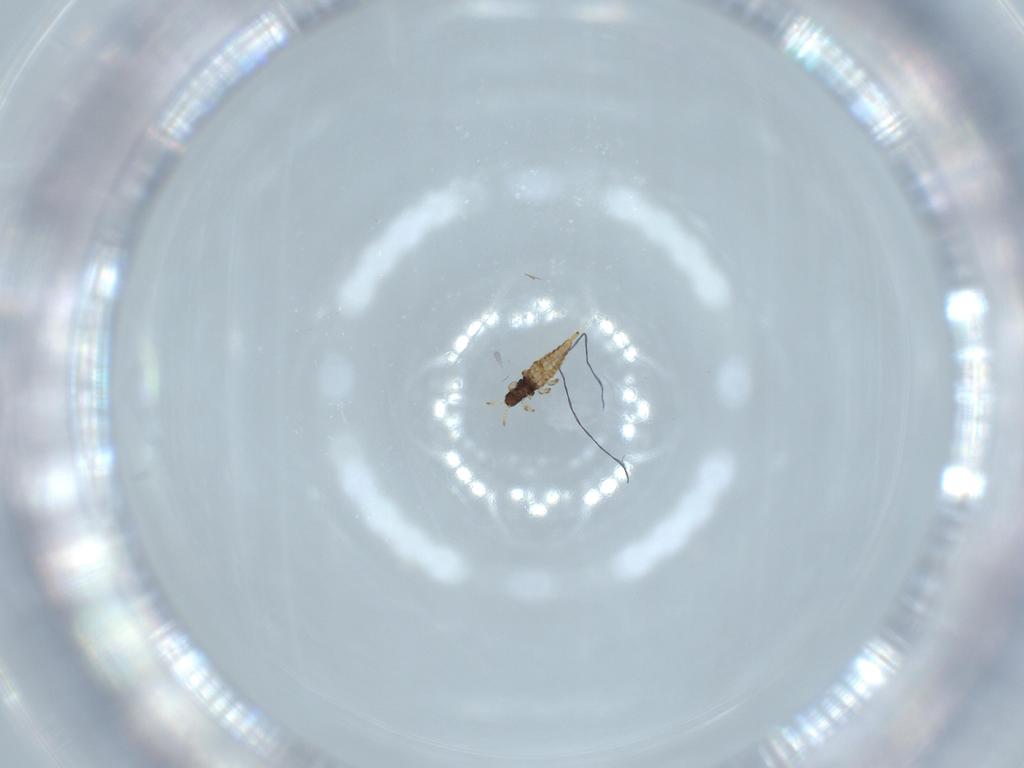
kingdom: Animalia
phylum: Arthropoda
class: Insecta
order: Thysanoptera
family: Phlaeothripidae
